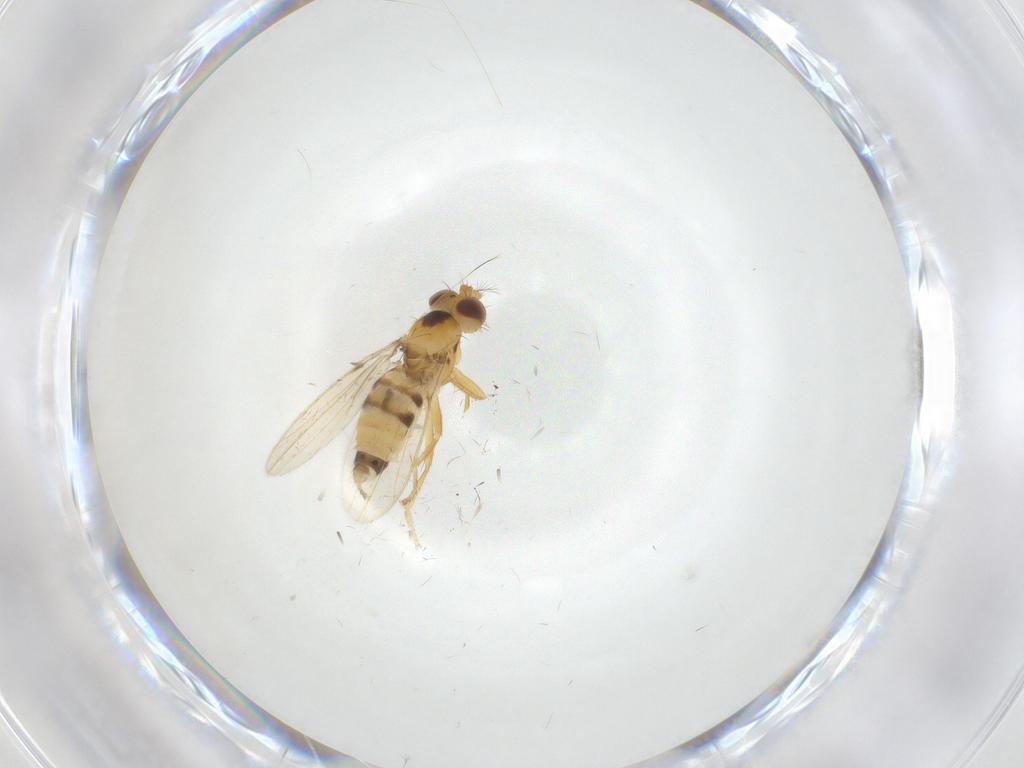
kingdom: Animalia
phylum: Arthropoda
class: Insecta
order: Diptera
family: Periscelididae
